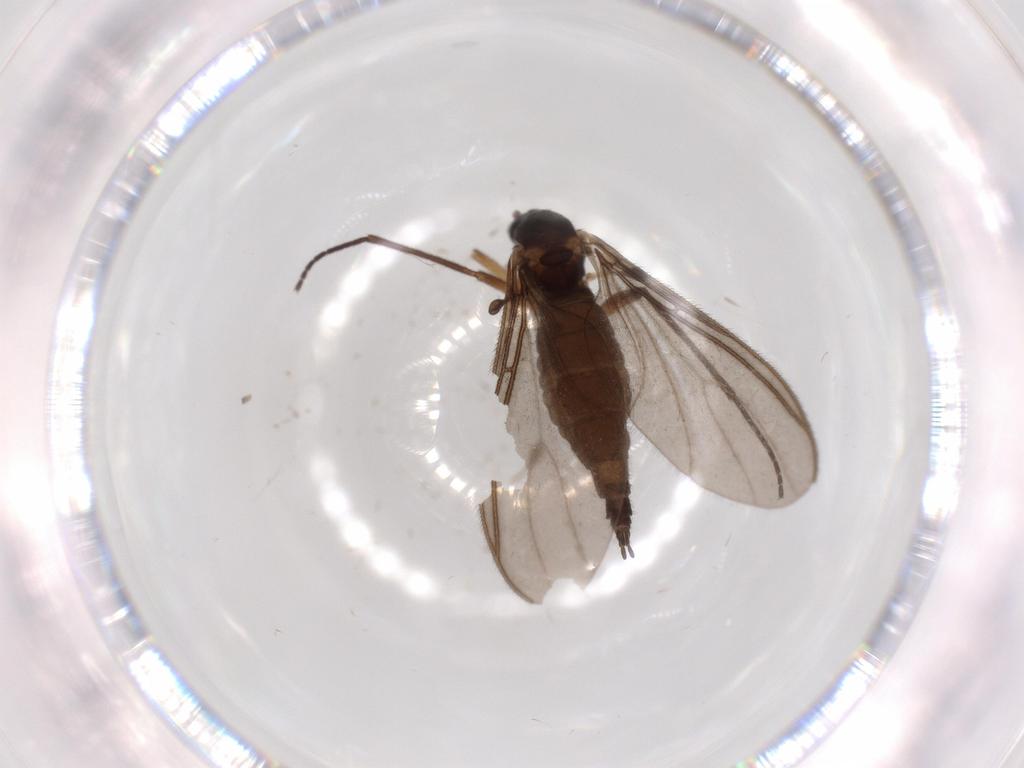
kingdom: Animalia
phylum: Arthropoda
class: Insecta
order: Diptera
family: Sciaridae
